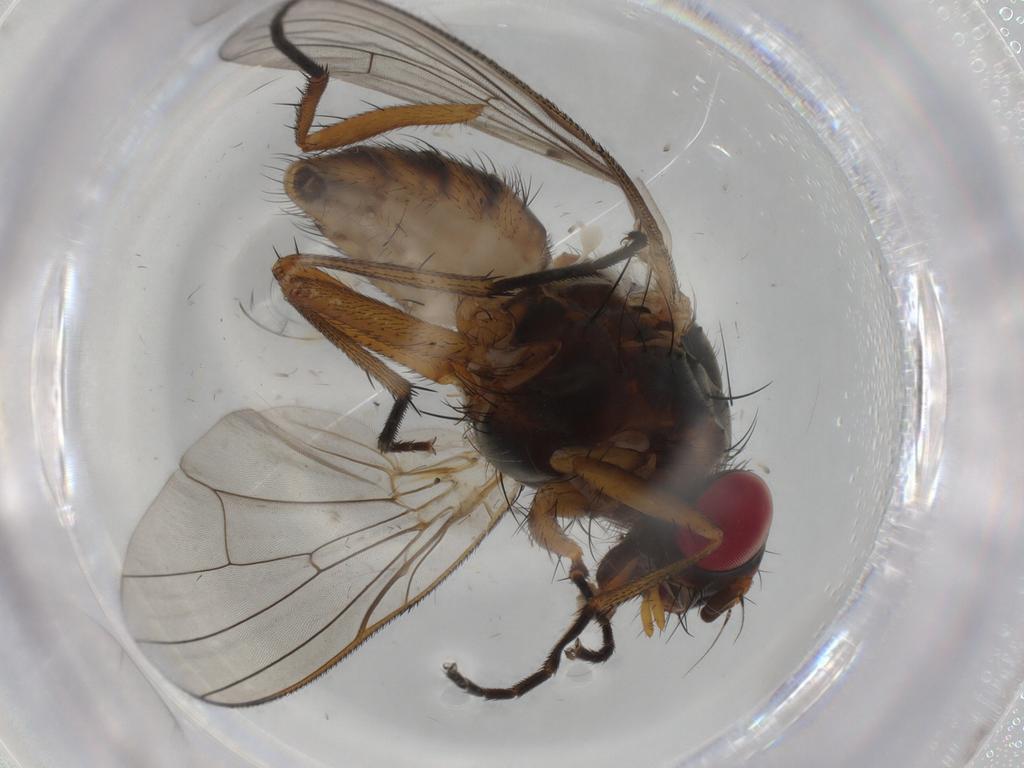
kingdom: Animalia
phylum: Arthropoda
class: Insecta
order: Diptera
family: Anthomyiidae
